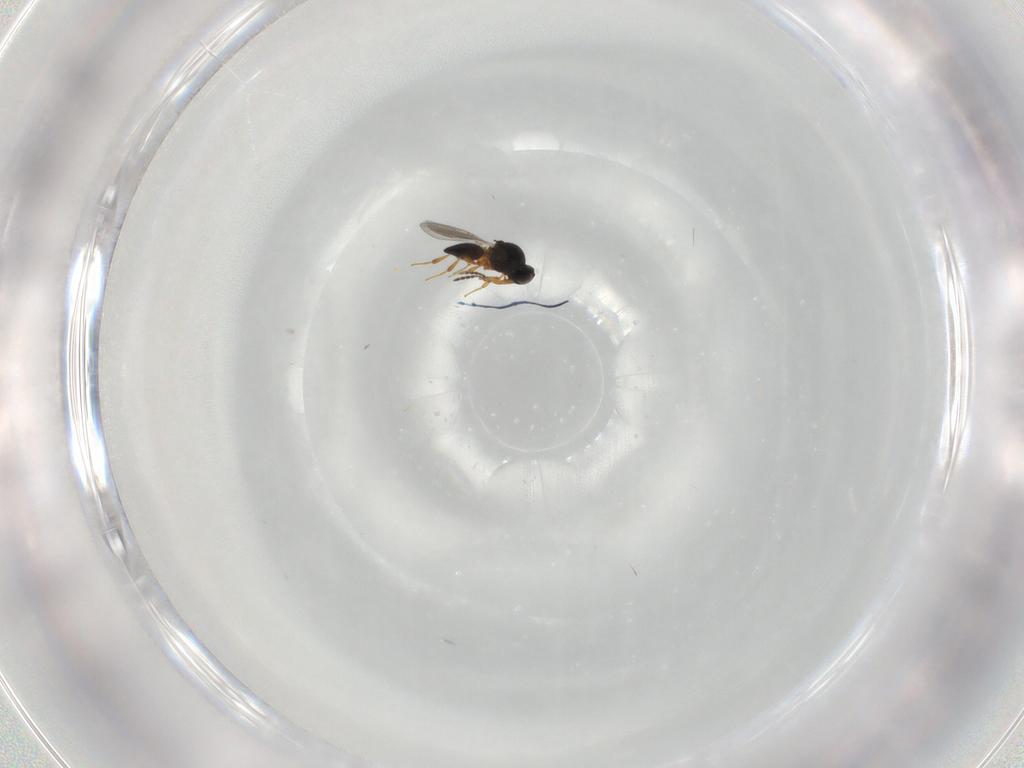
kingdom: Animalia
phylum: Arthropoda
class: Insecta
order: Hymenoptera
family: Platygastridae
